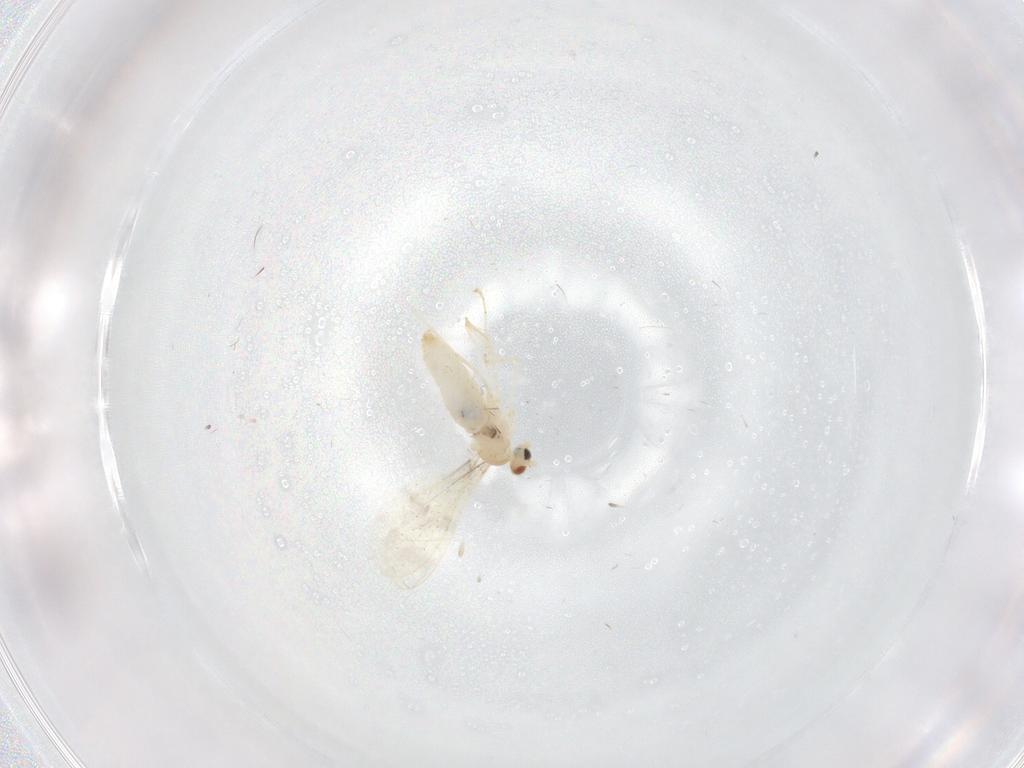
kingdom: Animalia
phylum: Arthropoda
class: Insecta
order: Diptera
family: Cecidomyiidae
